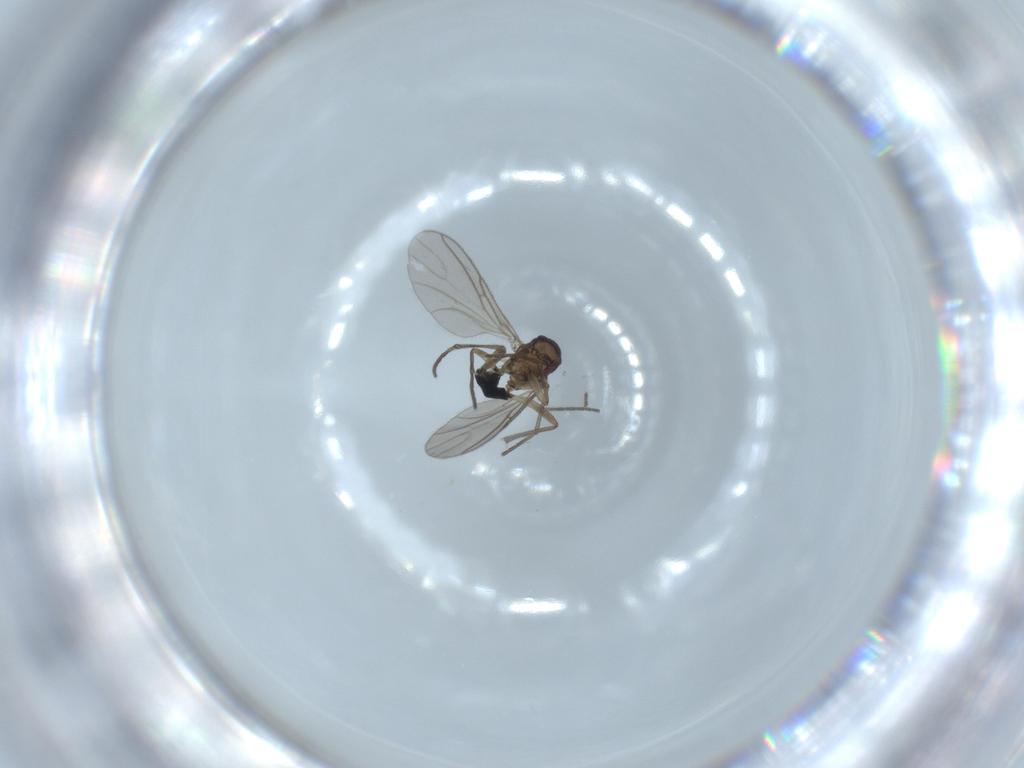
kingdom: Animalia
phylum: Arthropoda
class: Insecta
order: Diptera
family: Sciaridae
